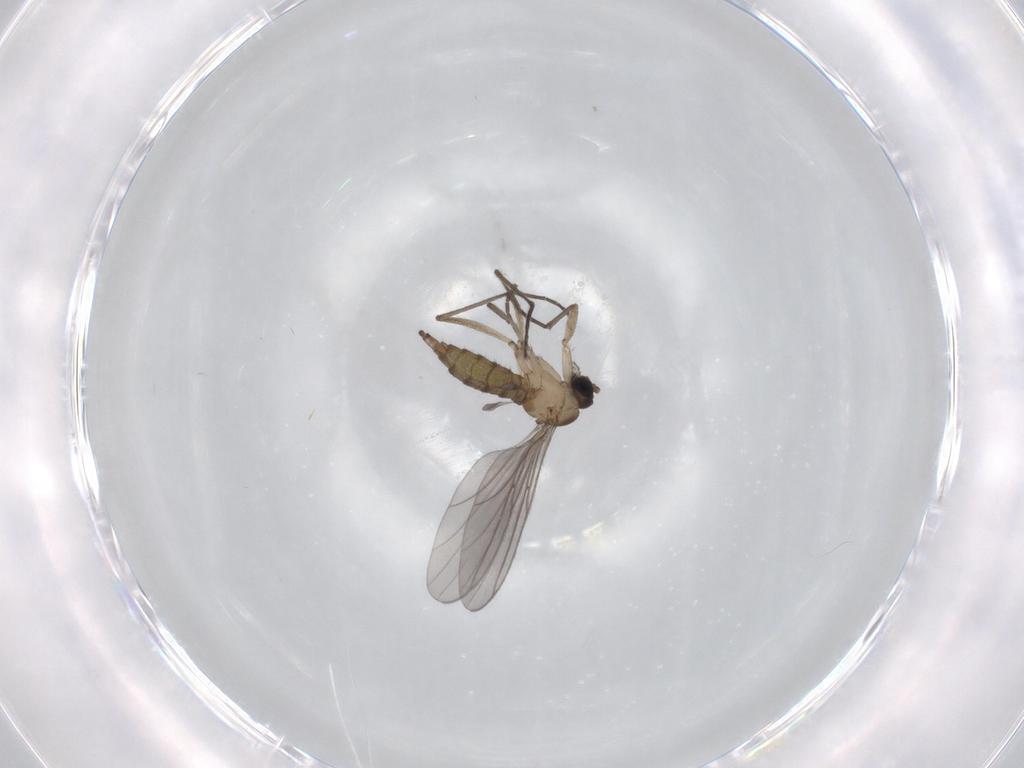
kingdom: Animalia
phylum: Arthropoda
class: Insecta
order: Diptera
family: Sciaridae
